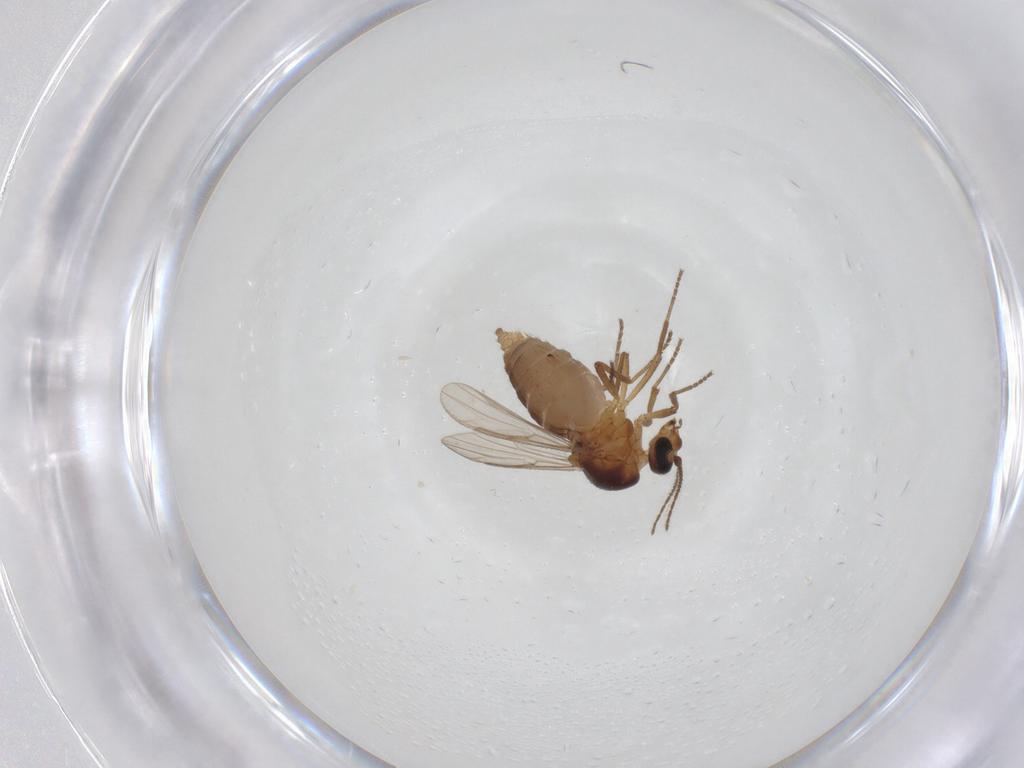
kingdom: Animalia
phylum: Arthropoda
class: Insecta
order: Diptera
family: Ceratopogonidae
